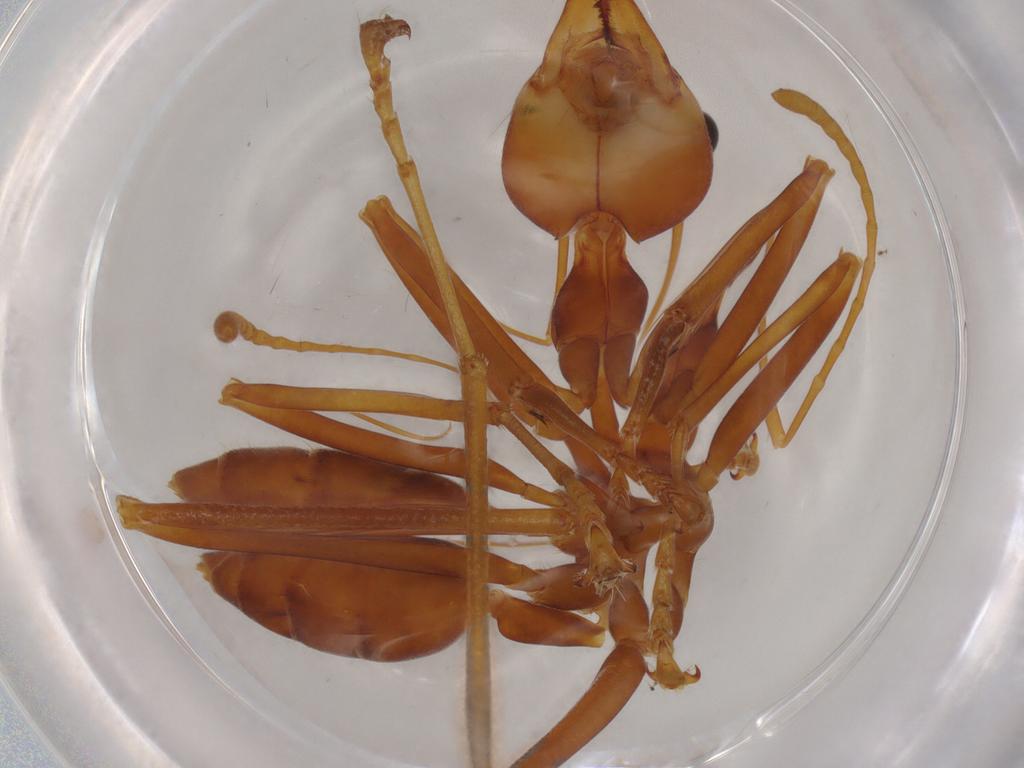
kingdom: Animalia
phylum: Arthropoda
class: Insecta
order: Hymenoptera
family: Formicidae
